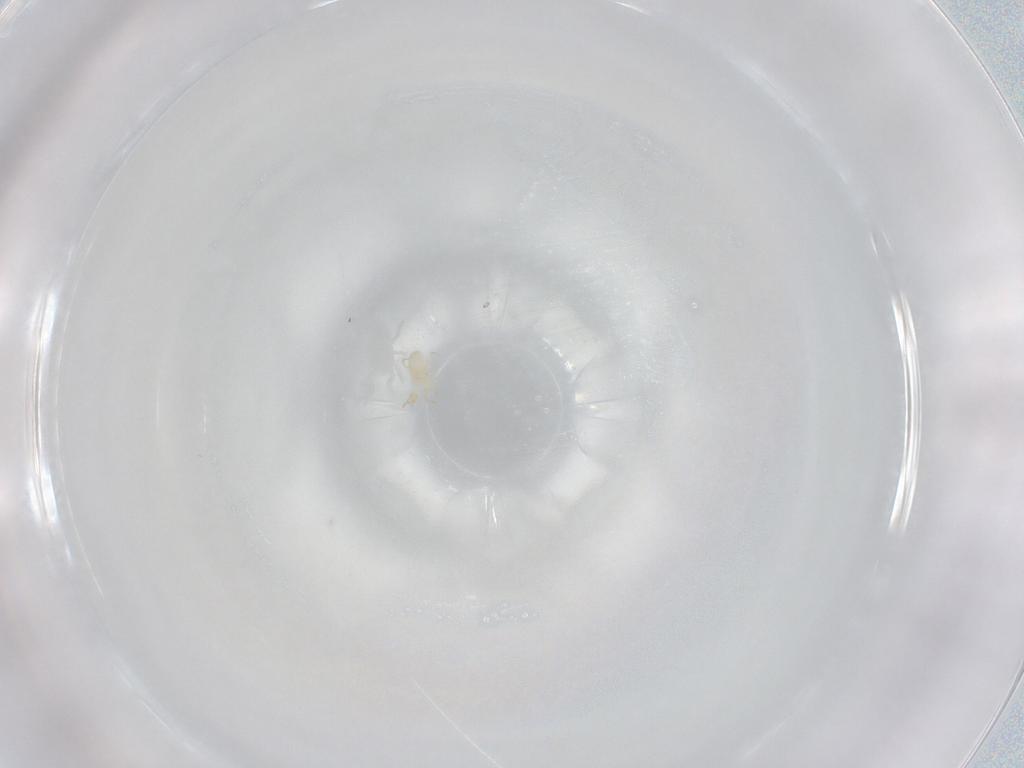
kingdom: Animalia
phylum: Arthropoda
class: Arachnida
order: Mesostigmata
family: Phytoseiidae
